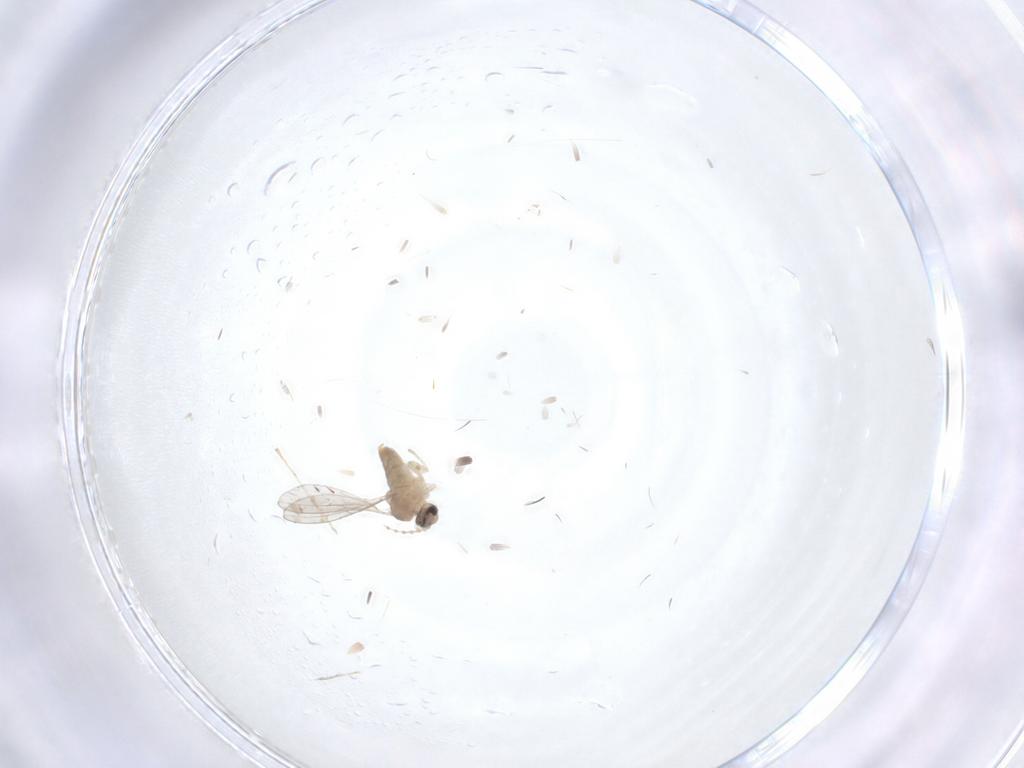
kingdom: Animalia
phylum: Arthropoda
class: Insecta
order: Diptera
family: Cecidomyiidae
